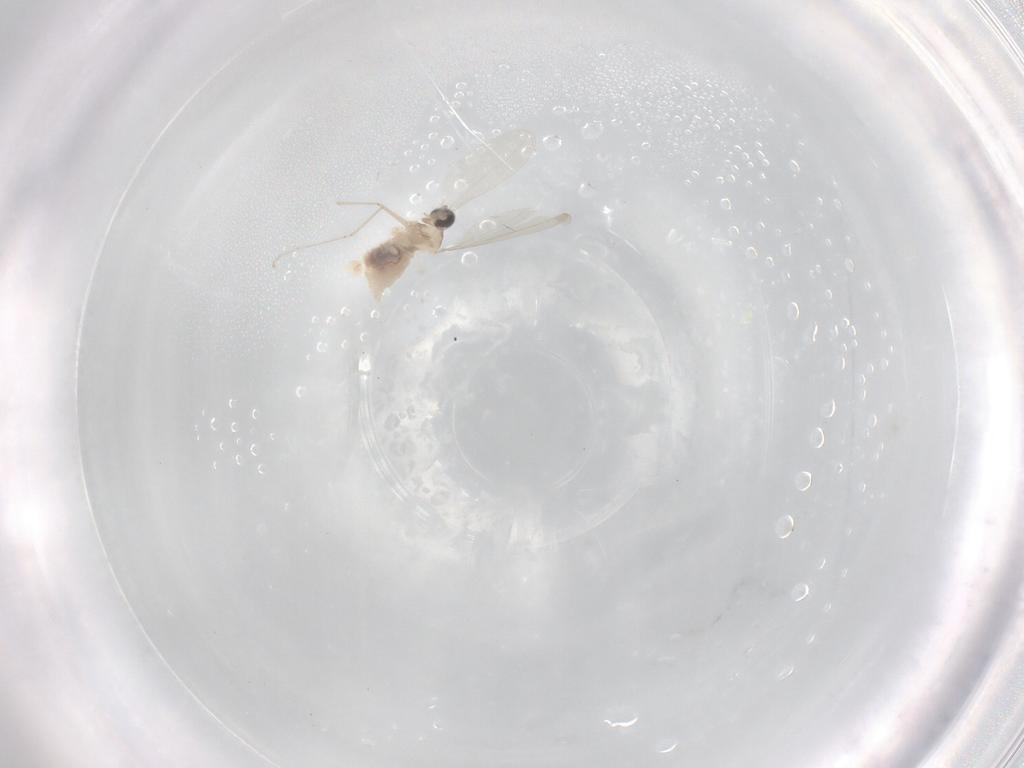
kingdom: Animalia
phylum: Arthropoda
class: Insecta
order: Diptera
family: Cecidomyiidae
